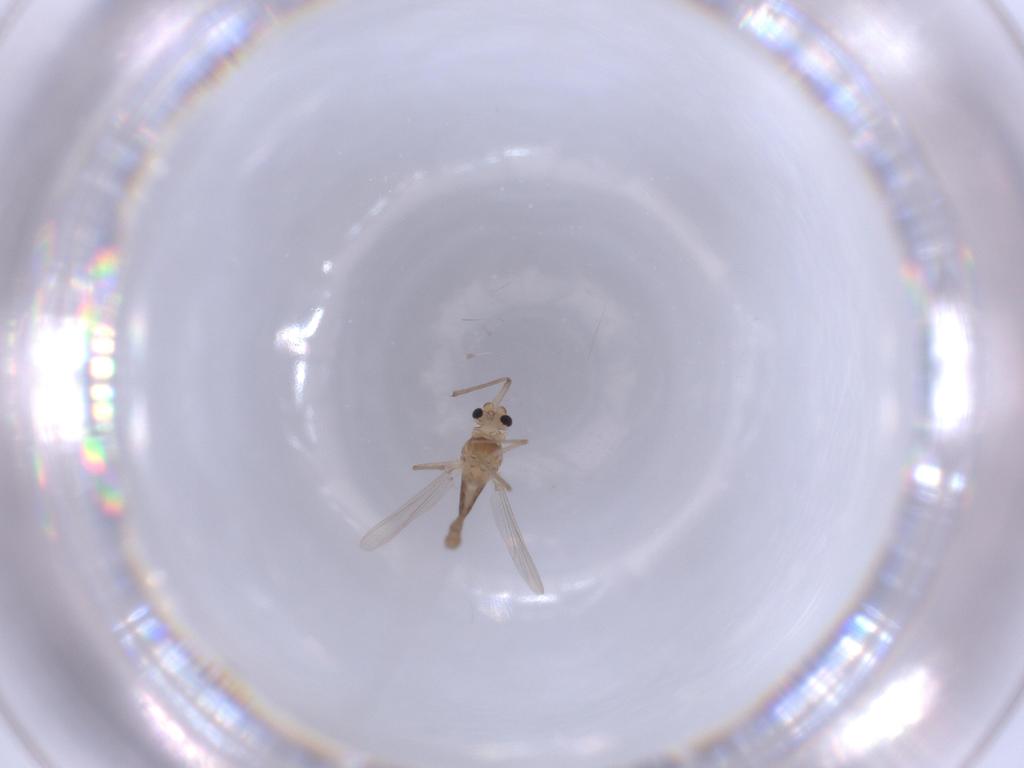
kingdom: Animalia
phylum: Arthropoda
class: Insecta
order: Diptera
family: Chironomidae
